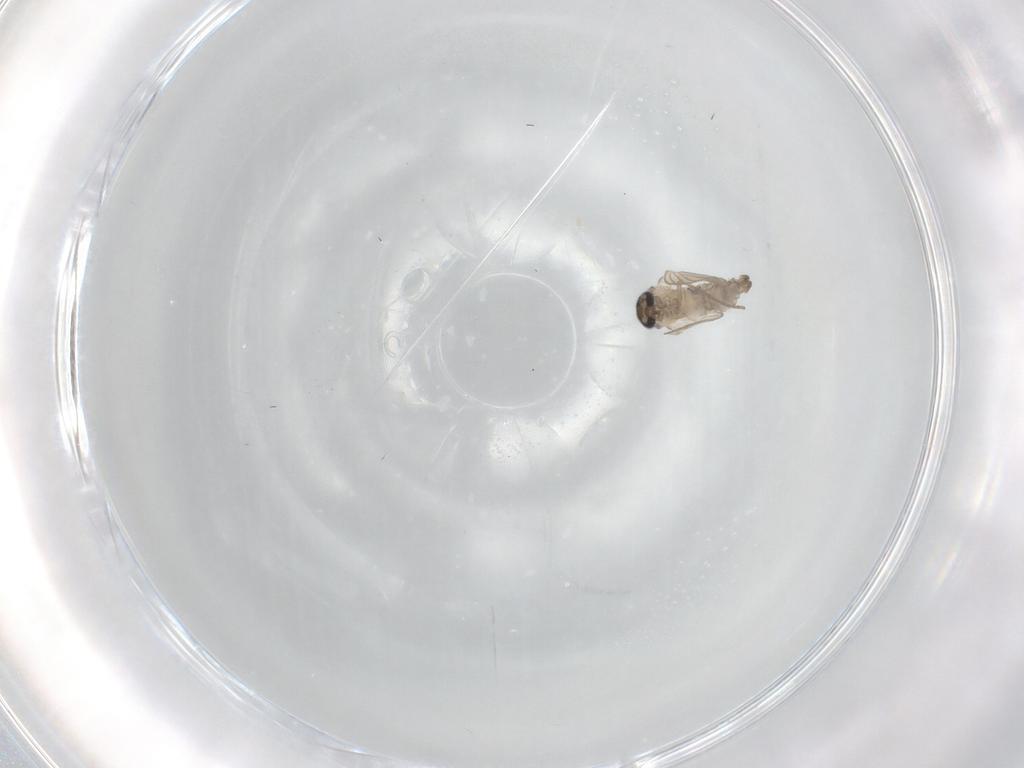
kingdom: Animalia
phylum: Arthropoda
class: Insecta
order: Diptera
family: Psychodidae
